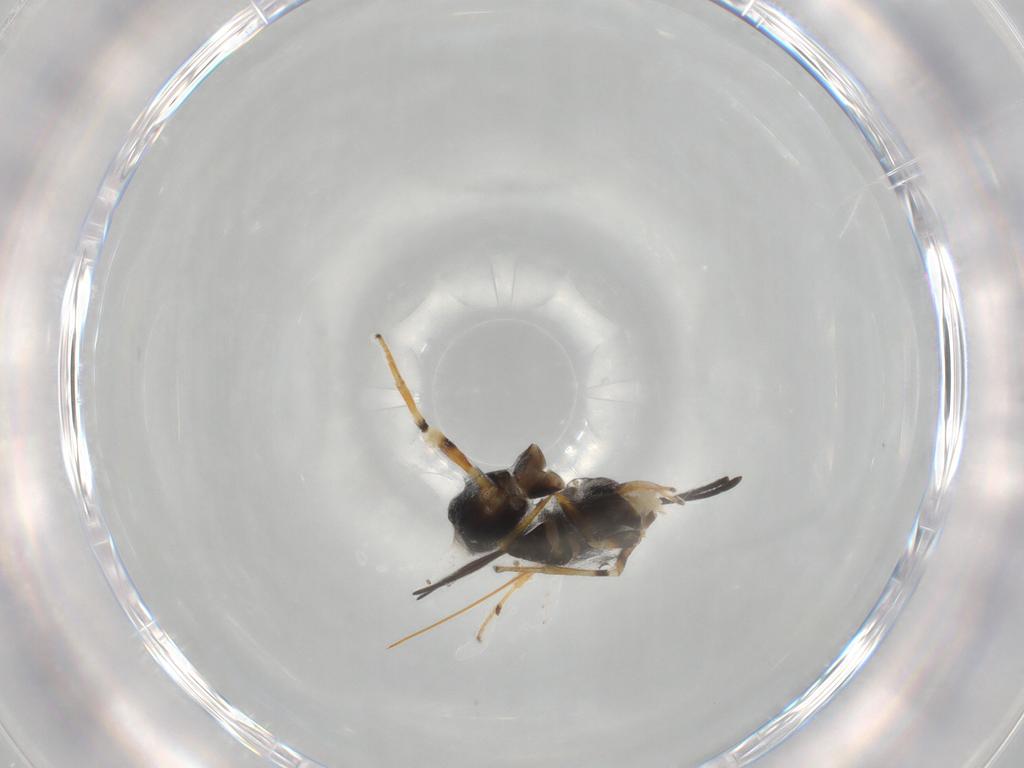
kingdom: Animalia
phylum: Arthropoda
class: Insecta
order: Hymenoptera
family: Eupelmidae
